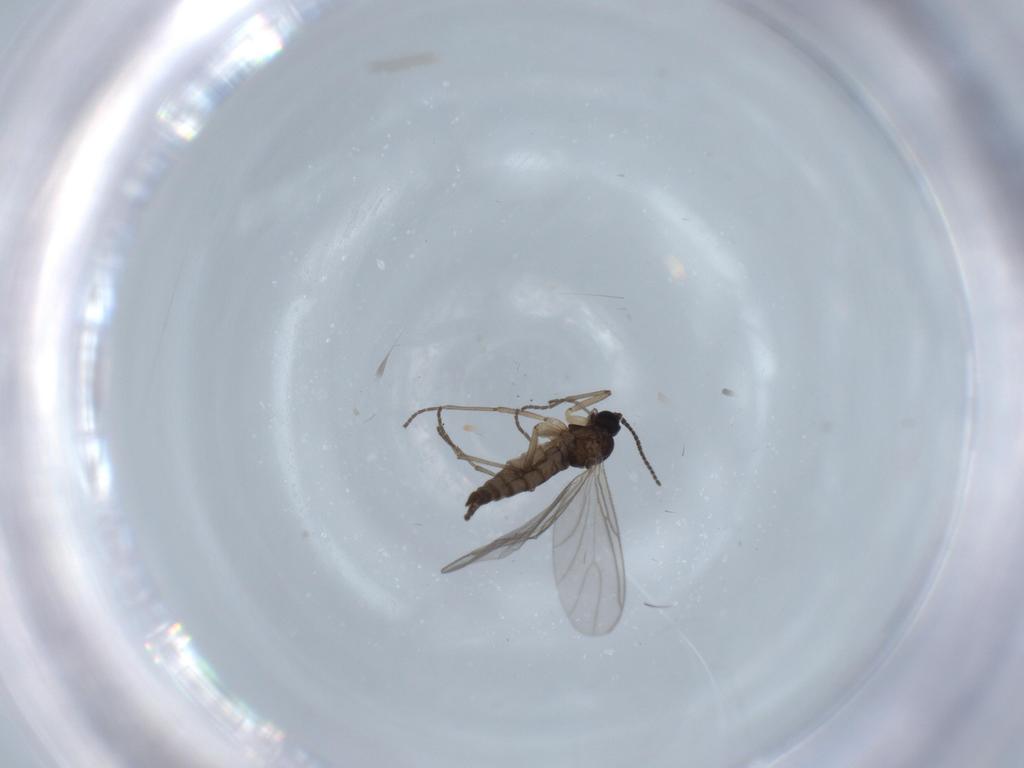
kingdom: Animalia
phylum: Arthropoda
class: Insecta
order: Diptera
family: Chironomidae
